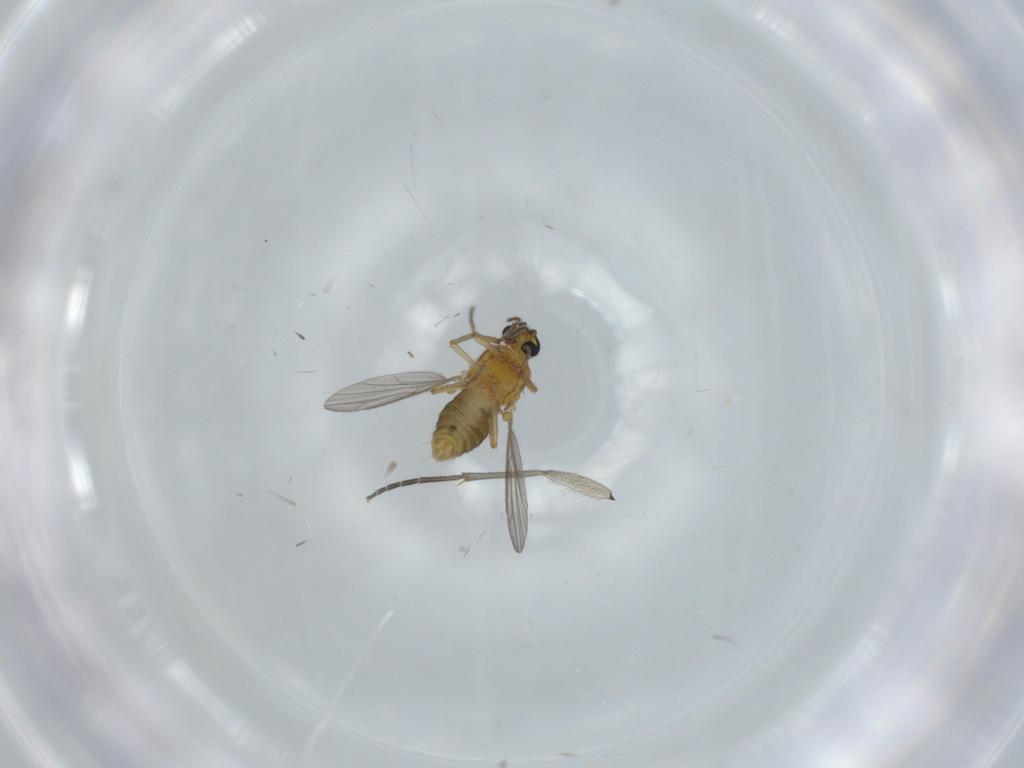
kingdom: Animalia
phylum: Arthropoda
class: Insecta
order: Diptera
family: Ceratopogonidae
